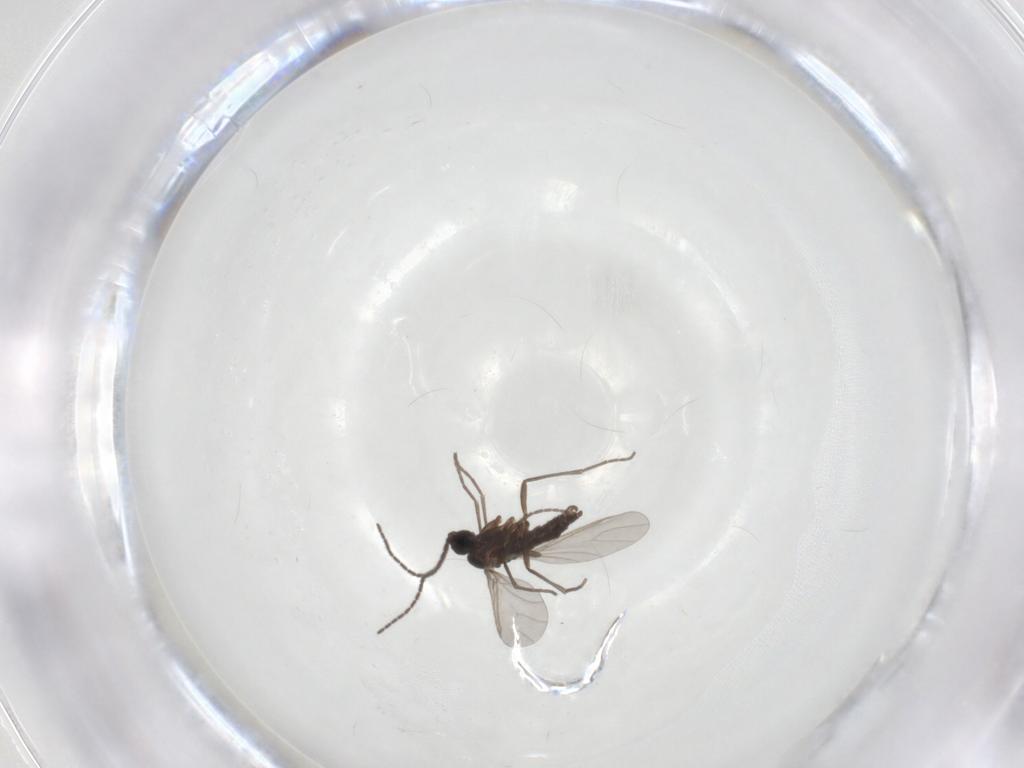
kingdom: Animalia
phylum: Arthropoda
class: Insecta
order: Diptera
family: Sciaridae
